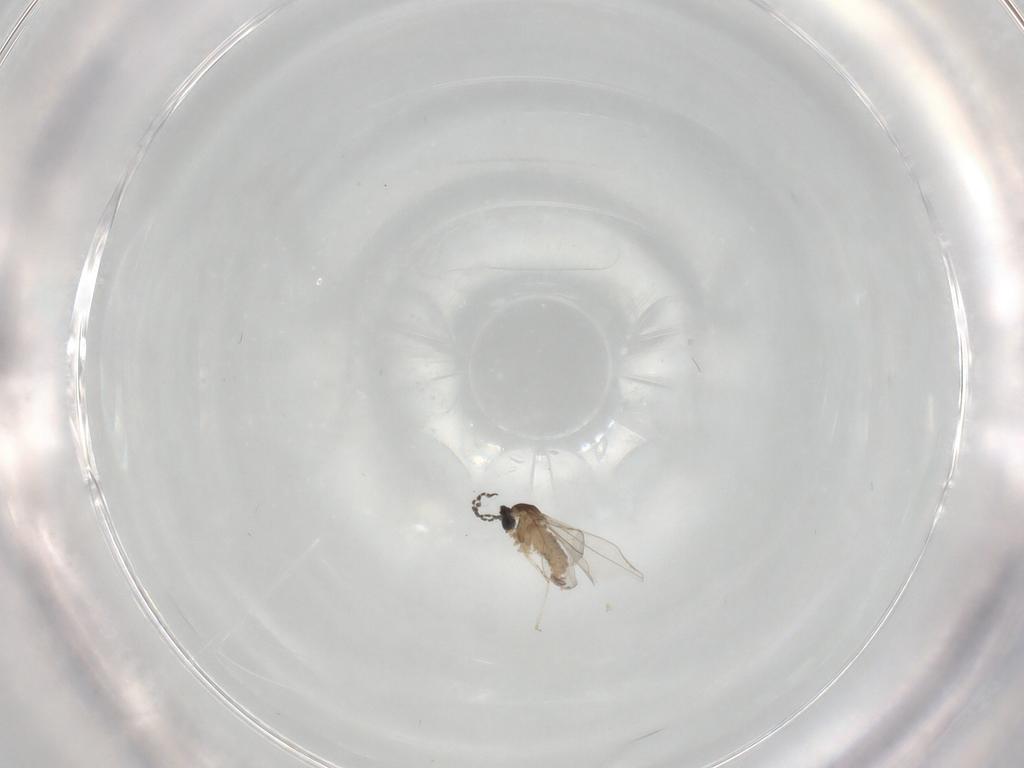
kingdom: Animalia
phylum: Arthropoda
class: Insecta
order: Diptera
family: Cecidomyiidae
